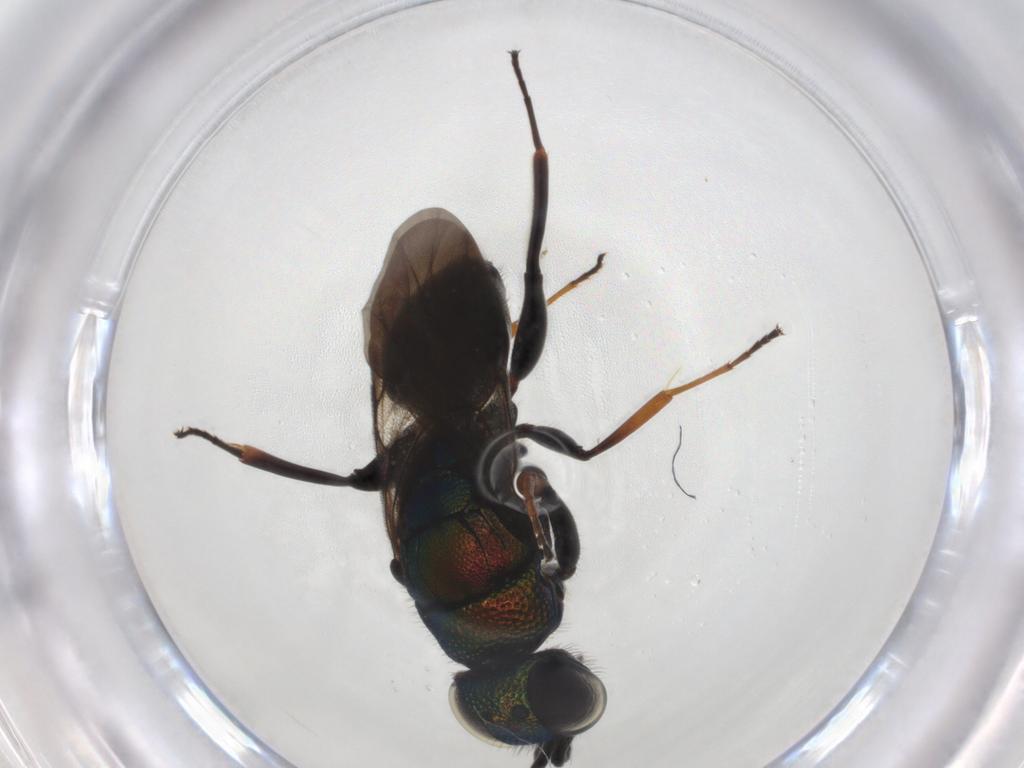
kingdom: Animalia
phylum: Arthropoda
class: Insecta
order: Hymenoptera
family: Chrysididae
